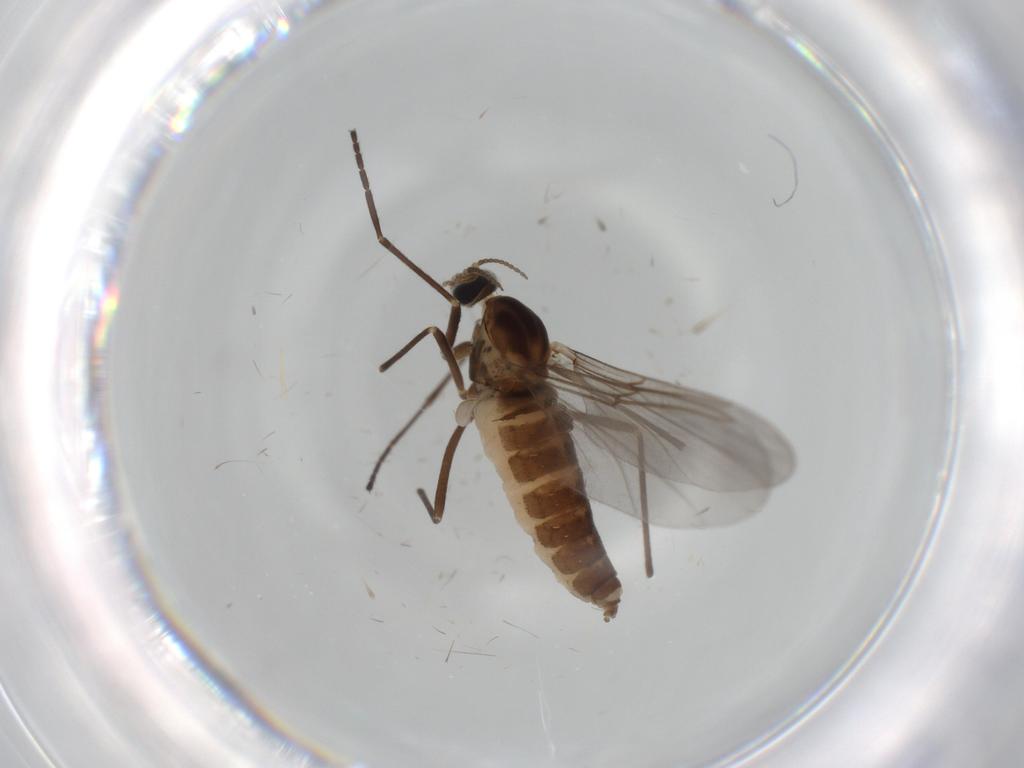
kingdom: Animalia
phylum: Arthropoda
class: Insecta
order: Diptera
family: Cecidomyiidae
